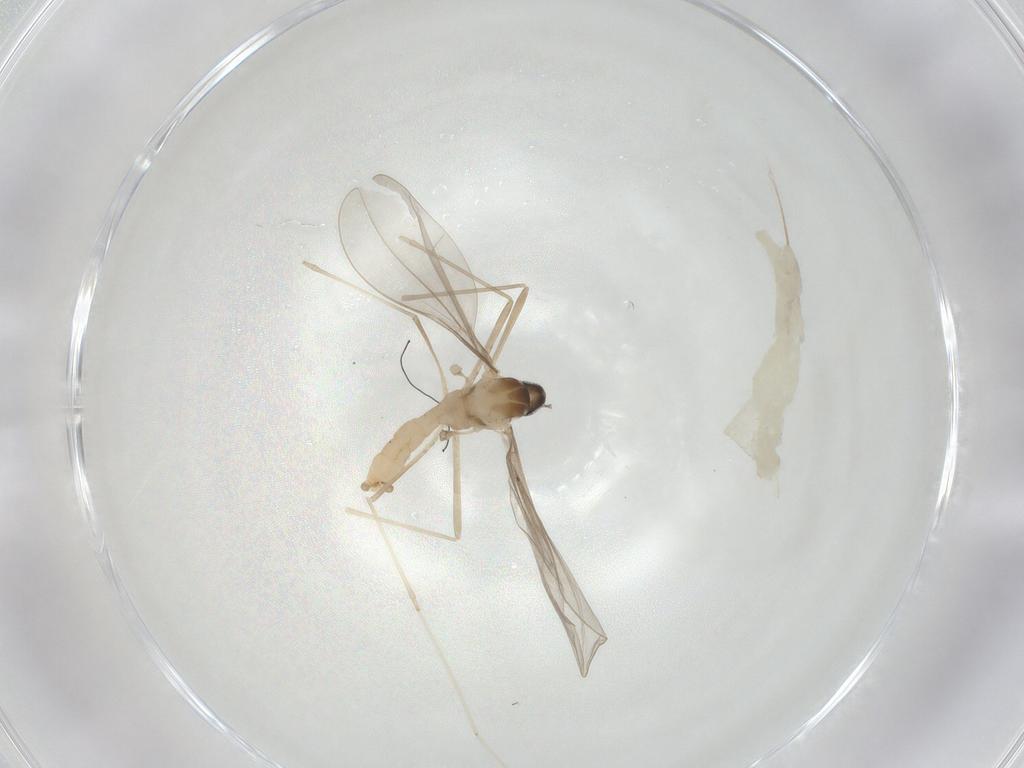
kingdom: Animalia
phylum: Arthropoda
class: Insecta
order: Diptera
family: Cecidomyiidae
